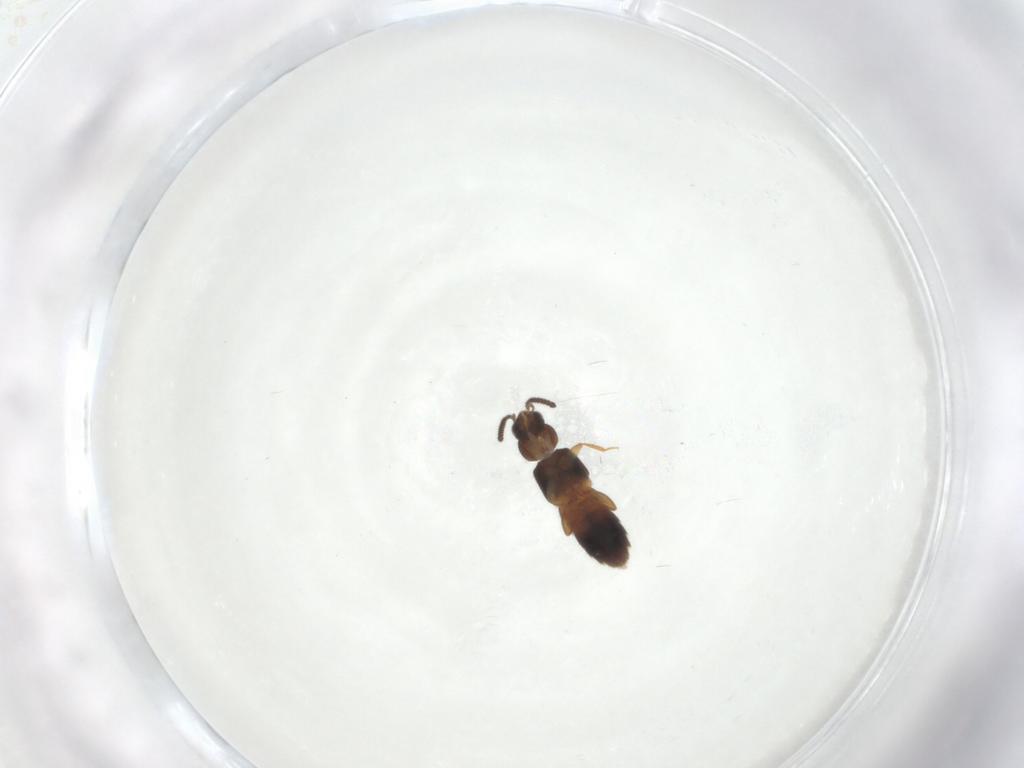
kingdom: Animalia
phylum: Arthropoda
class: Insecta
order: Coleoptera
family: Staphylinidae
